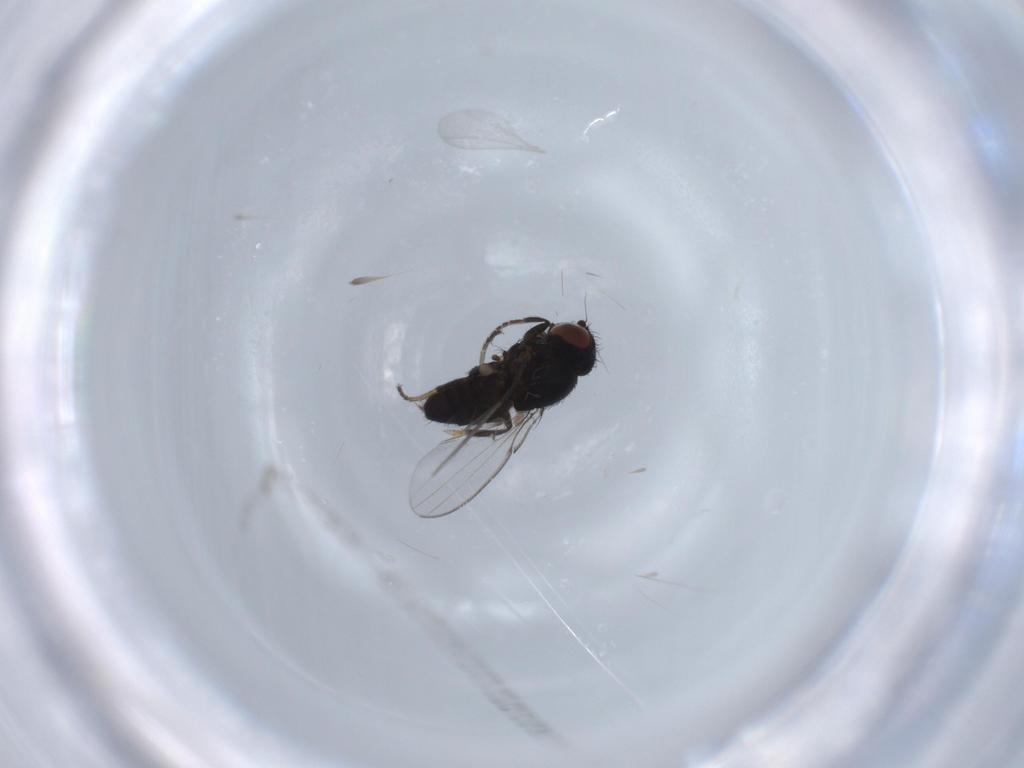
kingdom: Animalia
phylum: Arthropoda
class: Insecta
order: Diptera
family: Milichiidae
